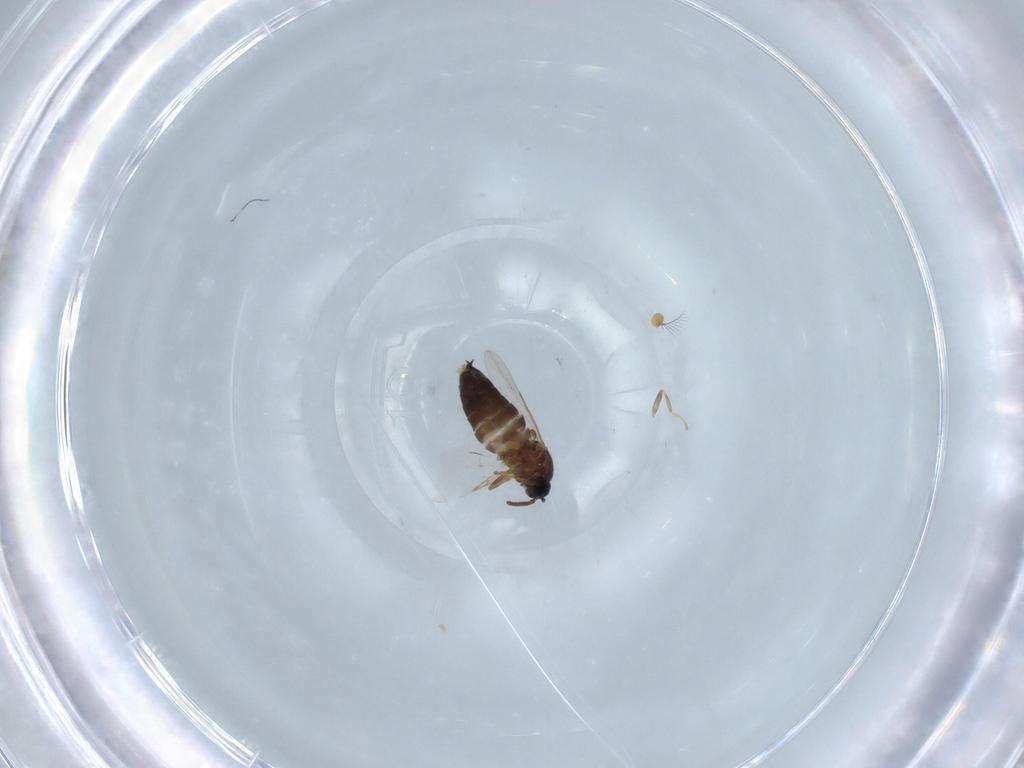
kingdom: Animalia
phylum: Arthropoda
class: Insecta
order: Diptera
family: Scatopsidae
